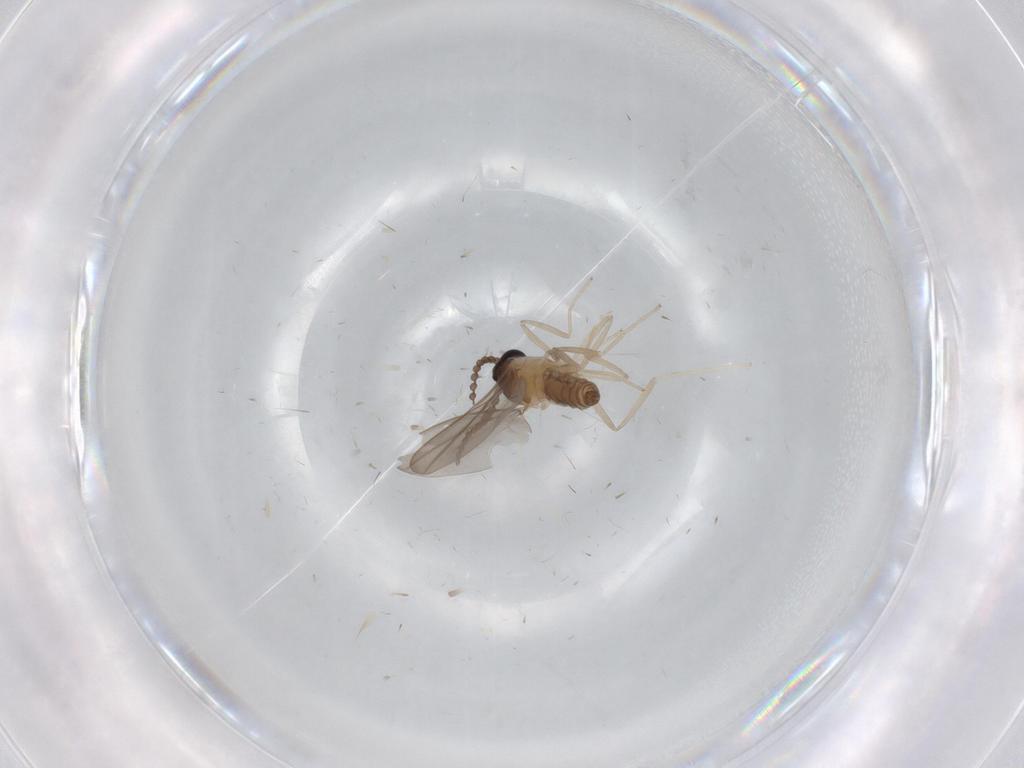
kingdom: Animalia
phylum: Arthropoda
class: Insecta
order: Diptera
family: Cecidomyiidae
